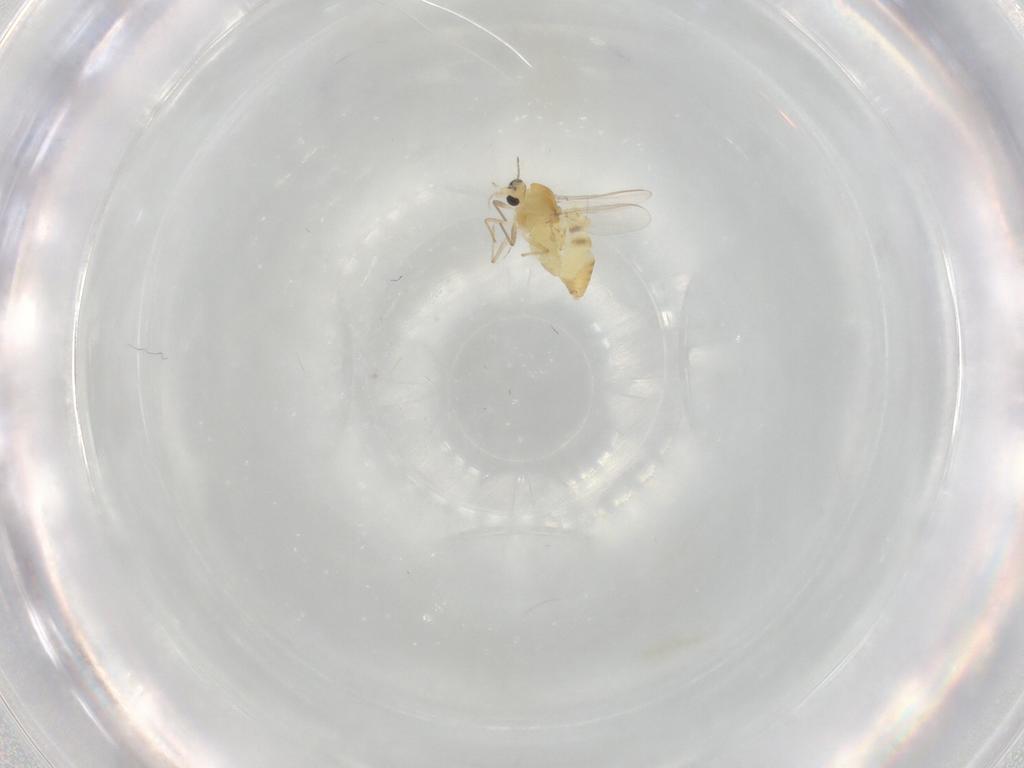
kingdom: Animalia
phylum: Arthropoda
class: Insecta
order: Diptera
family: Chironomidae
